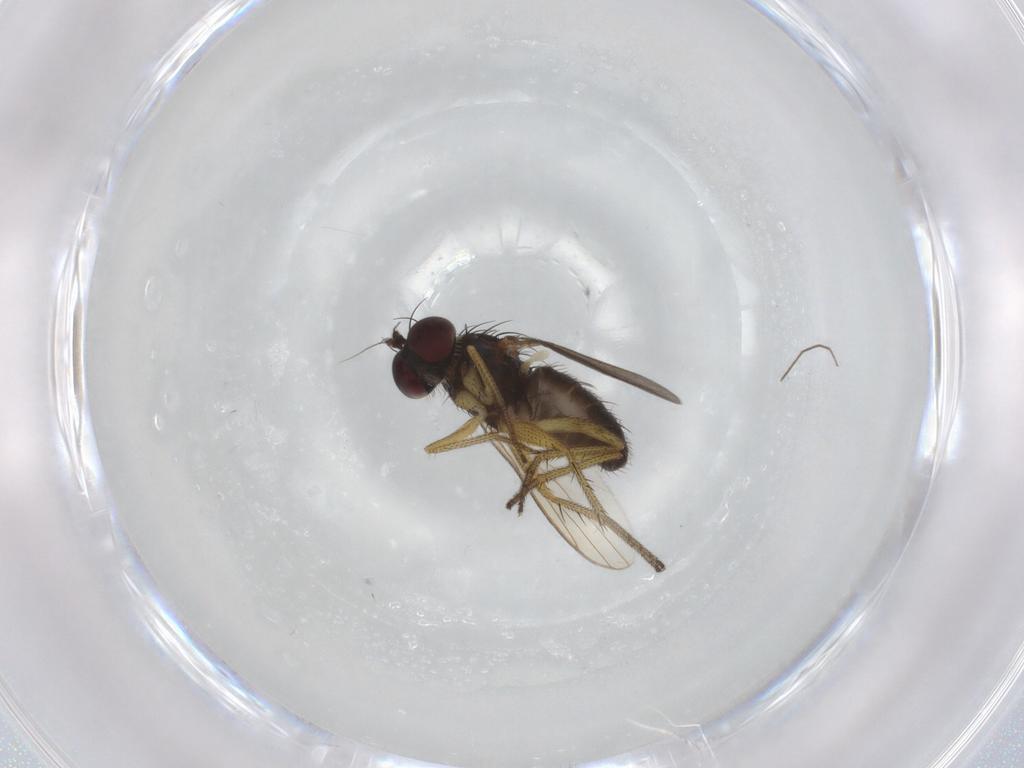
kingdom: Animalia
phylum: Arthropoda
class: Insecta
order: Diptera
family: Chironomidae
